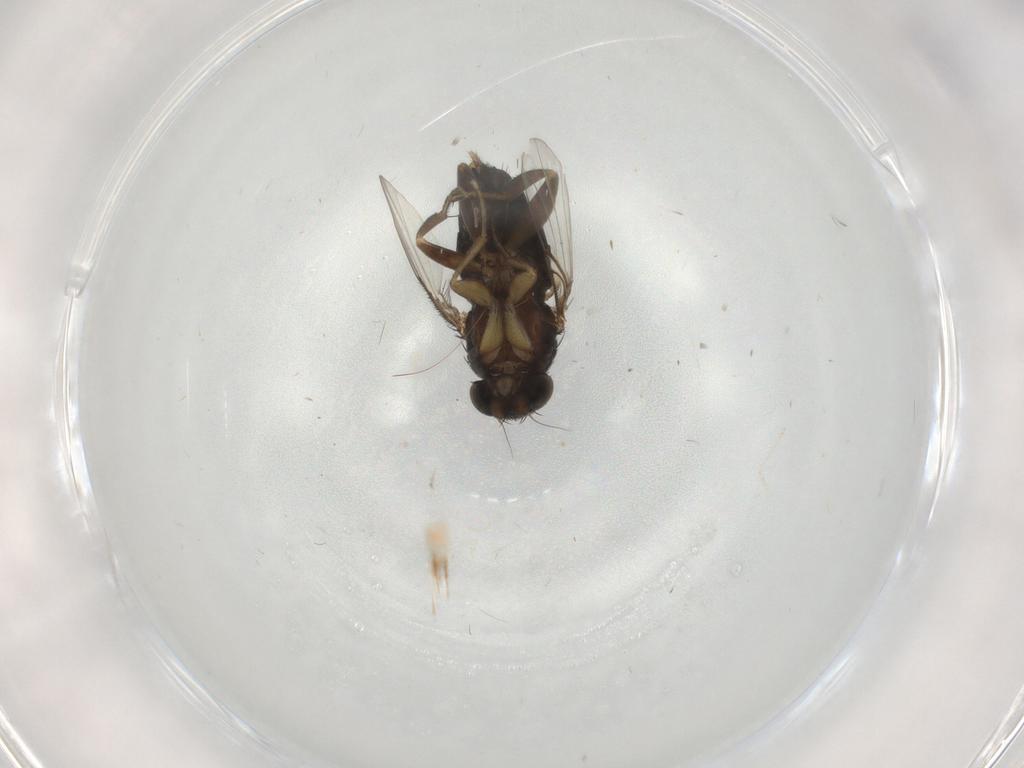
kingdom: Animalia
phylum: Arthropoda
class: Insecta
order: Diptera
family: Phoridae
